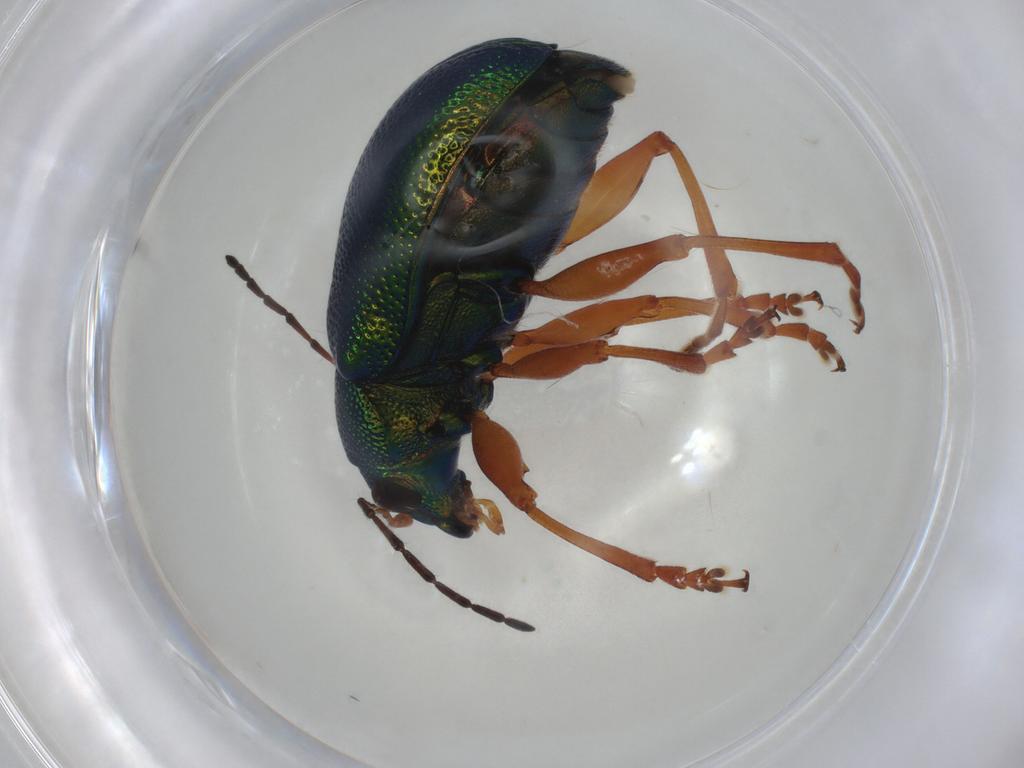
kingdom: Animalia
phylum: Arthropoda
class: Insecta
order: Coleoptera
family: Chrysomelidae
